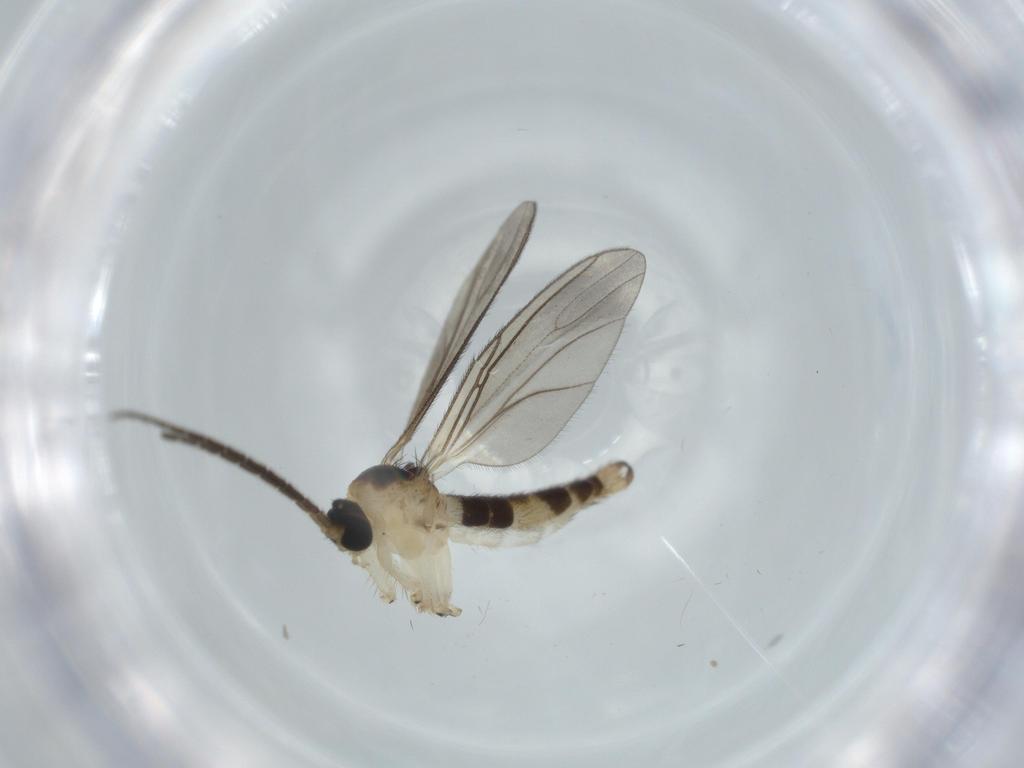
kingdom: Animalia
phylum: Arthropoda
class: Insecta
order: Diptera
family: Sciaridae
